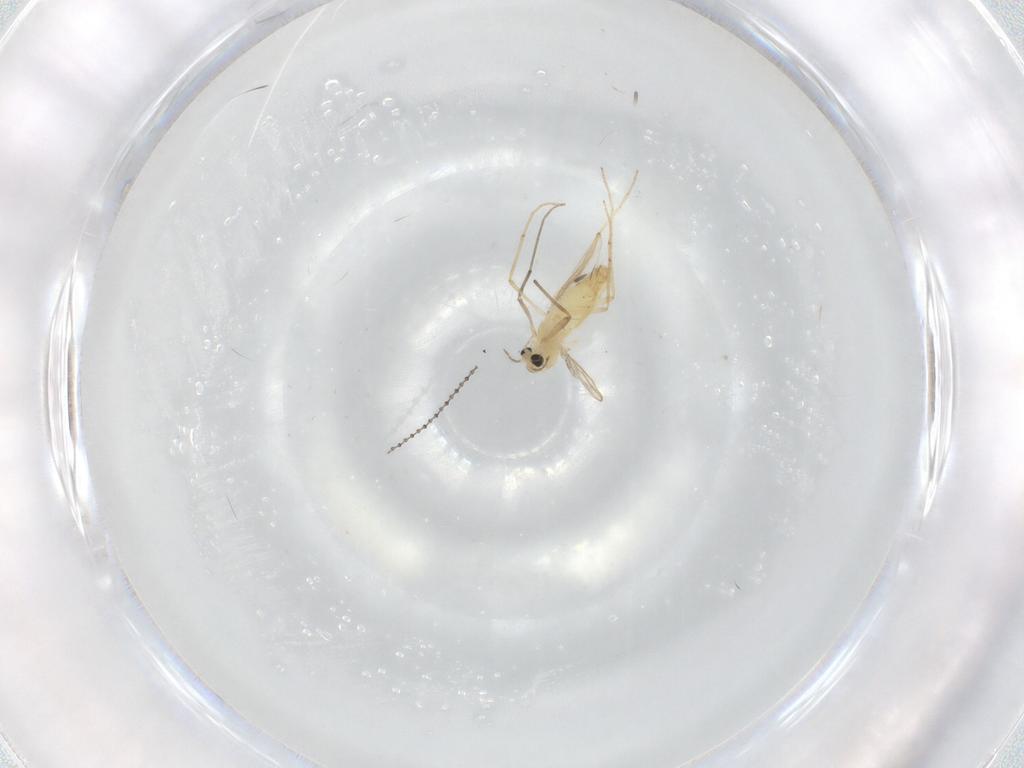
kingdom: Animalia
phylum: Arthropoda
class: Insecta
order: Diptera
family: Chironomidae
